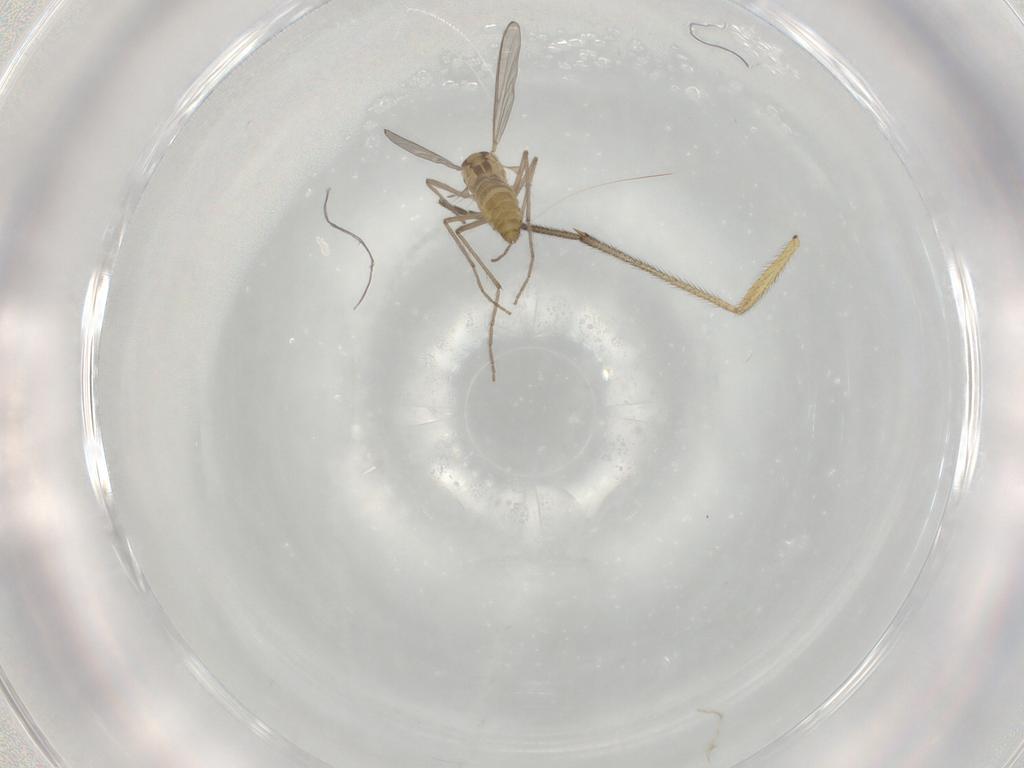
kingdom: Animalia
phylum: Arthropoda
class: Insecta
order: Diptera
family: Chironomidae
